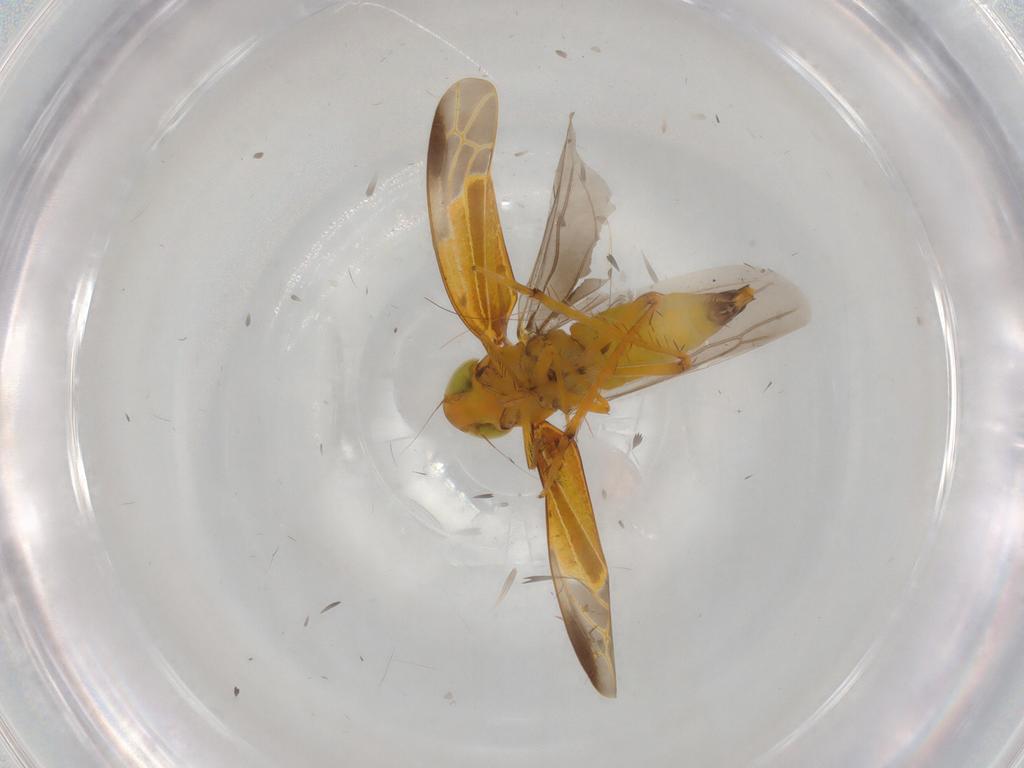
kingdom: Animalia
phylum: Arthropoda
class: Insecta
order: Hemiptera
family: Cicadellidae
